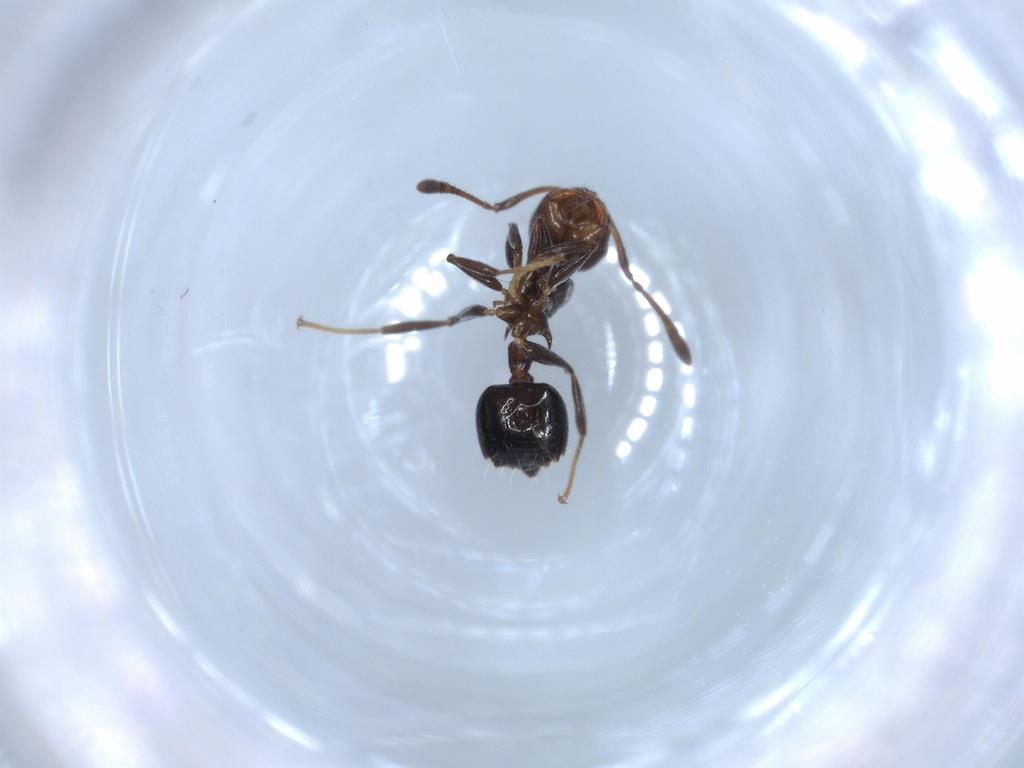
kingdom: Animalia
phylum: Arthropoda
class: Insecta
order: Hymenoptera
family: Formicidae
